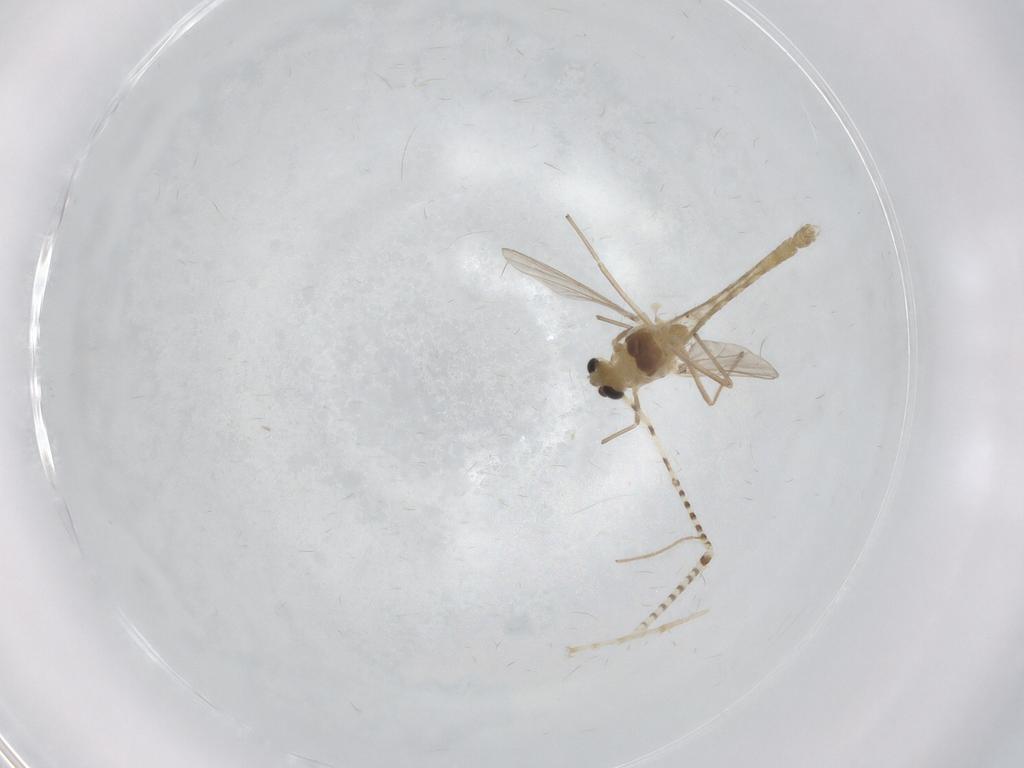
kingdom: Animalia
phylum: Arthropoda
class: Insecta
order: Diptera
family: Chironomidae
